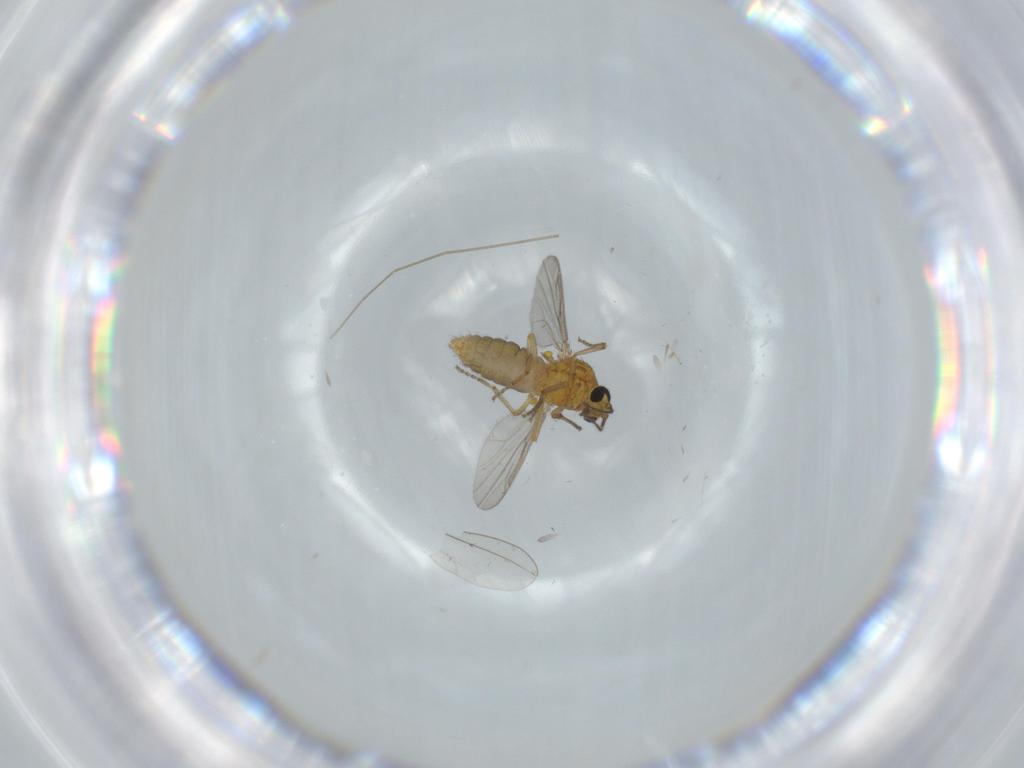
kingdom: Animalia
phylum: Arthropoda
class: Insecta
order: Diptera
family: Ceratopogonidae
